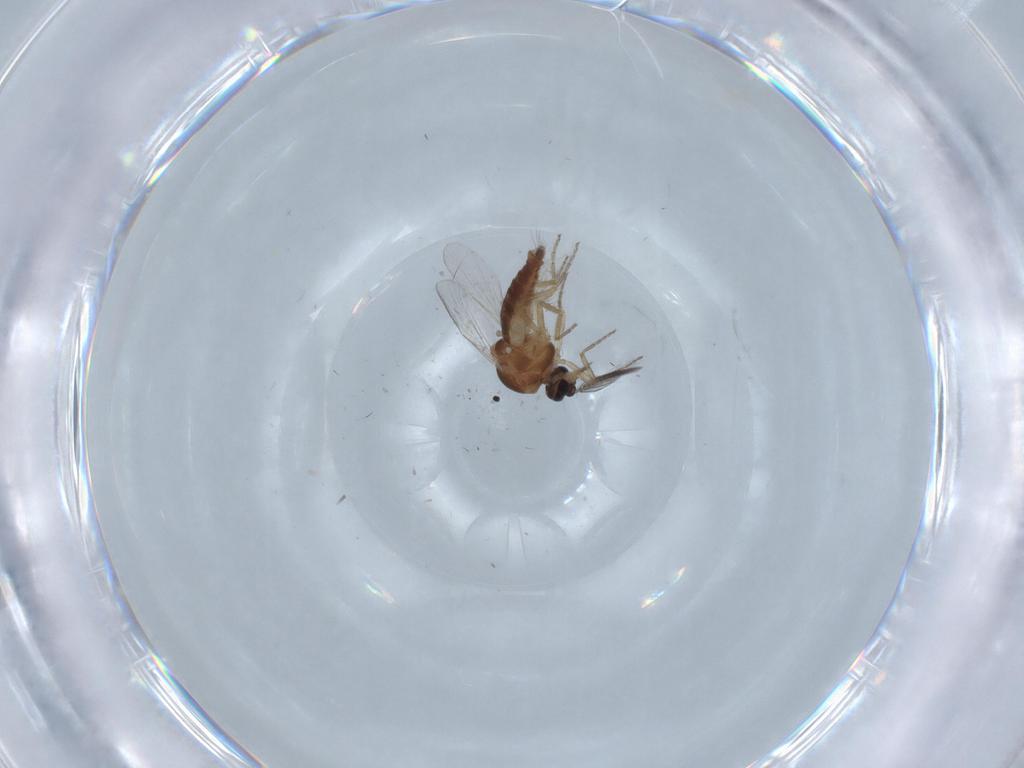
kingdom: Animalia
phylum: Arthropoda
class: Insecta
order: Diptera
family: Ceratopogonidae
